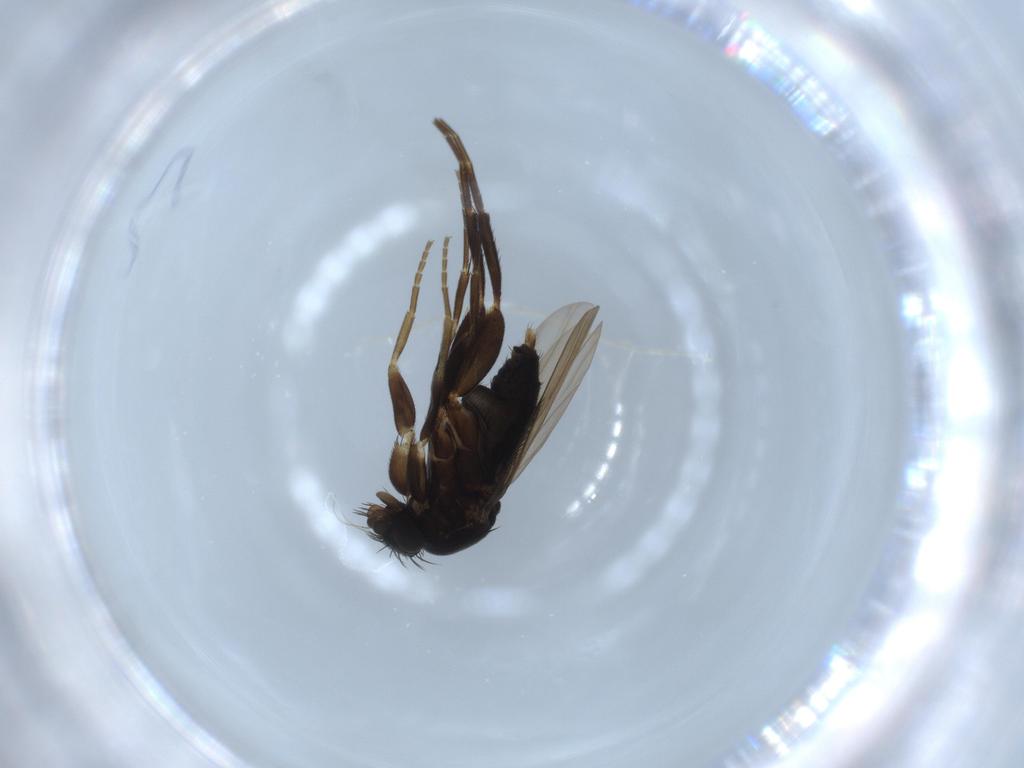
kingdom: Animalia
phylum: Arthropoda
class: Insecta
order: Diptera
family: Phoridae
